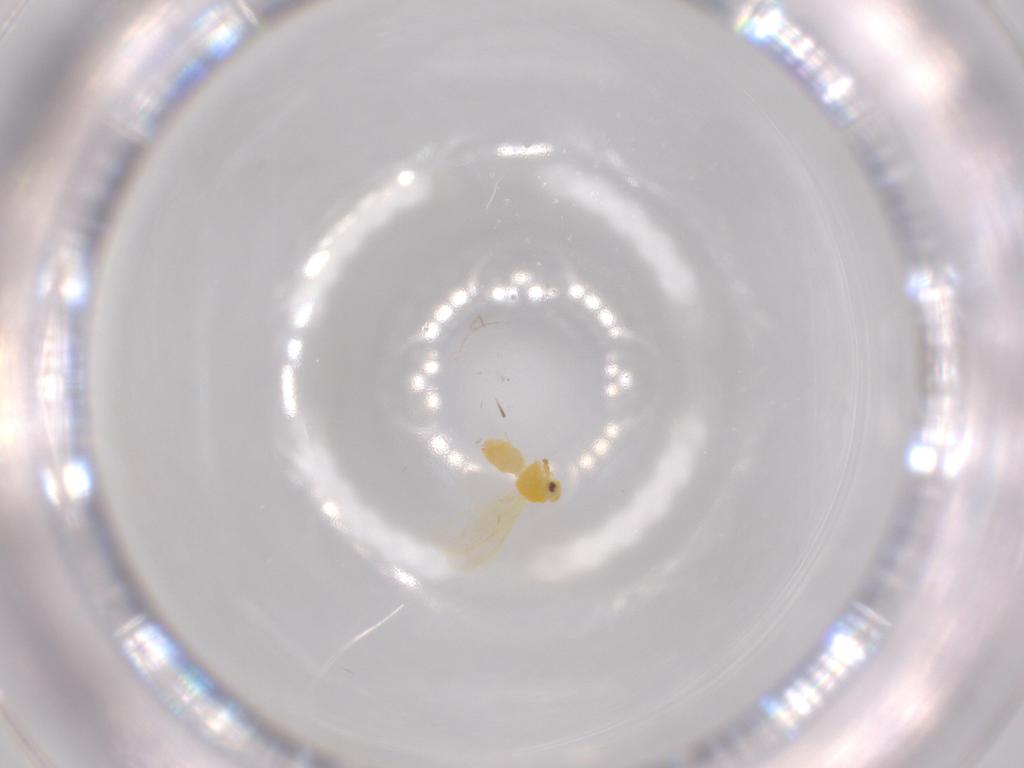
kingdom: Animalia
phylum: Arthropoda
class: Insecta
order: Hemiptera
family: Aleyrodidae
